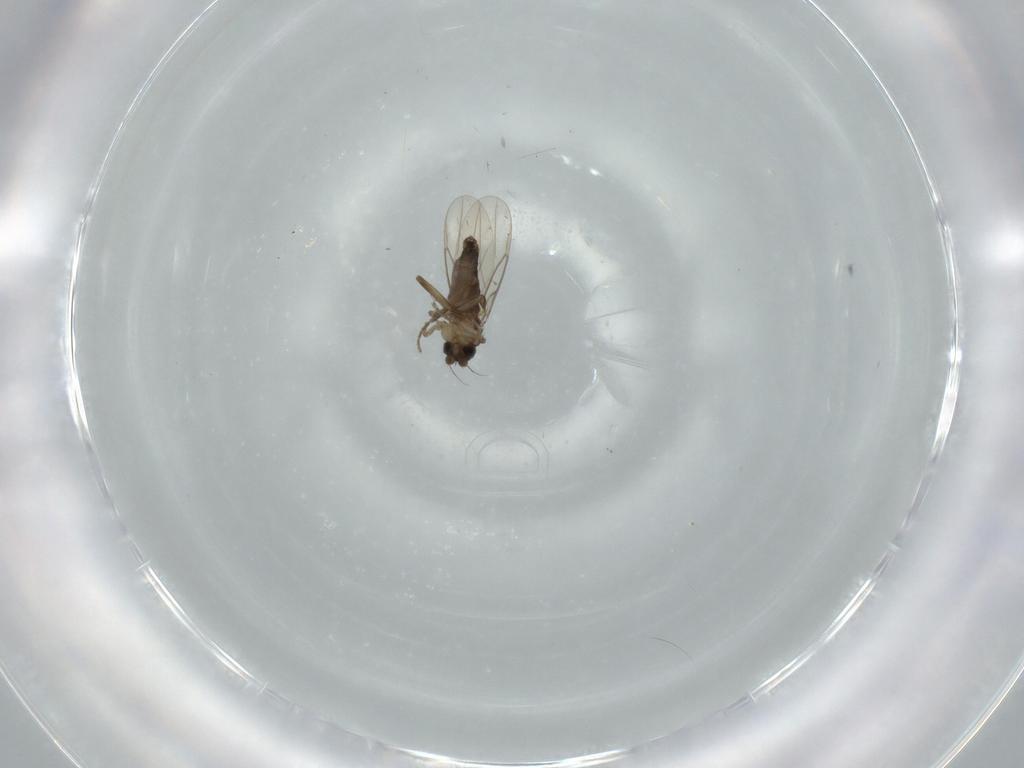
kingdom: Animalia
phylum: Arthropoda
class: Insecta
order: Diptera
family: Phoridae
